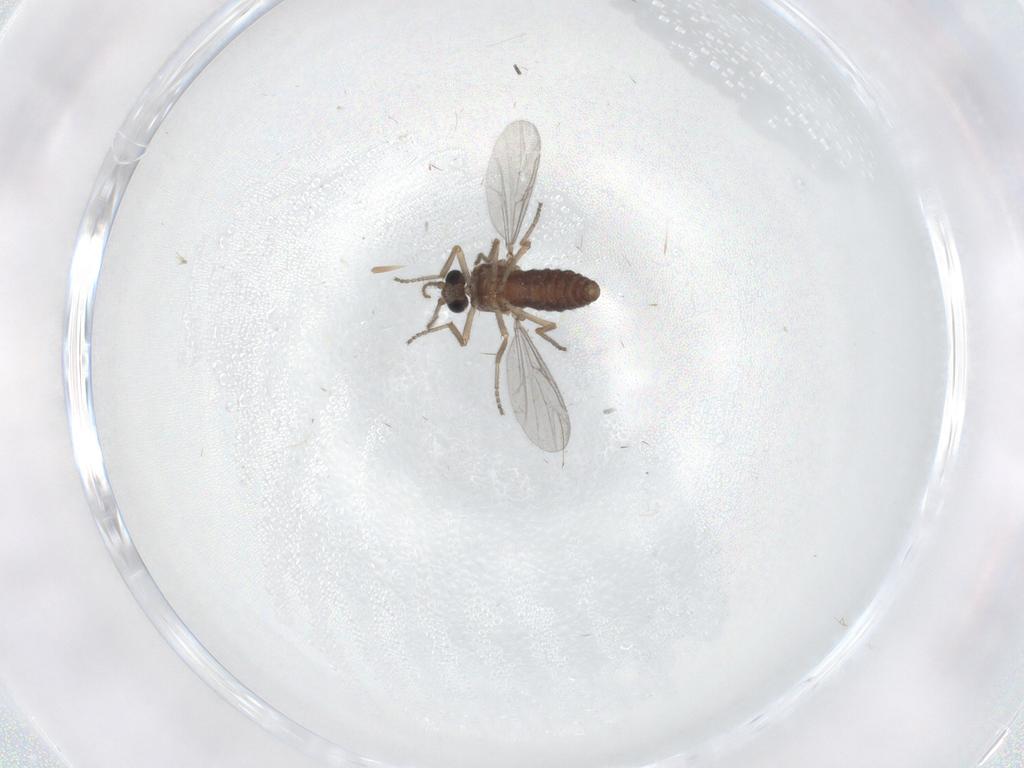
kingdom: Animalia
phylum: Arthropoda
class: Insecta
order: Diptera
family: Ceratopogonidae
